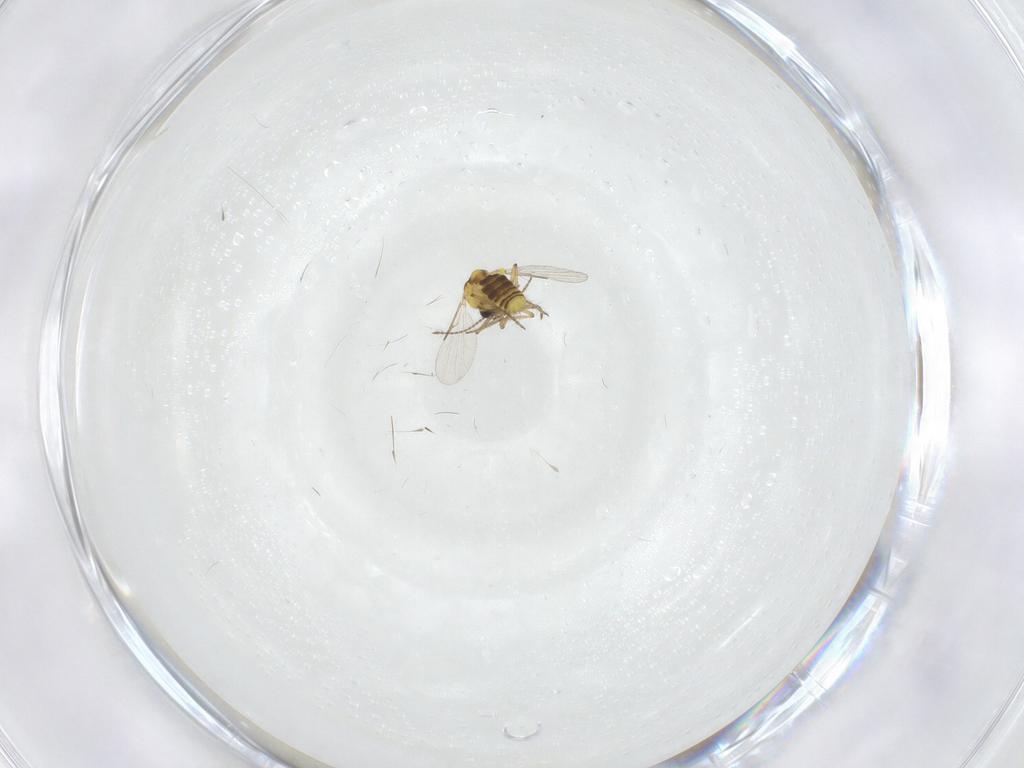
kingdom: Animalia
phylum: Arthropoda
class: Insecta
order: Diptera
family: Ceratopogonidae
